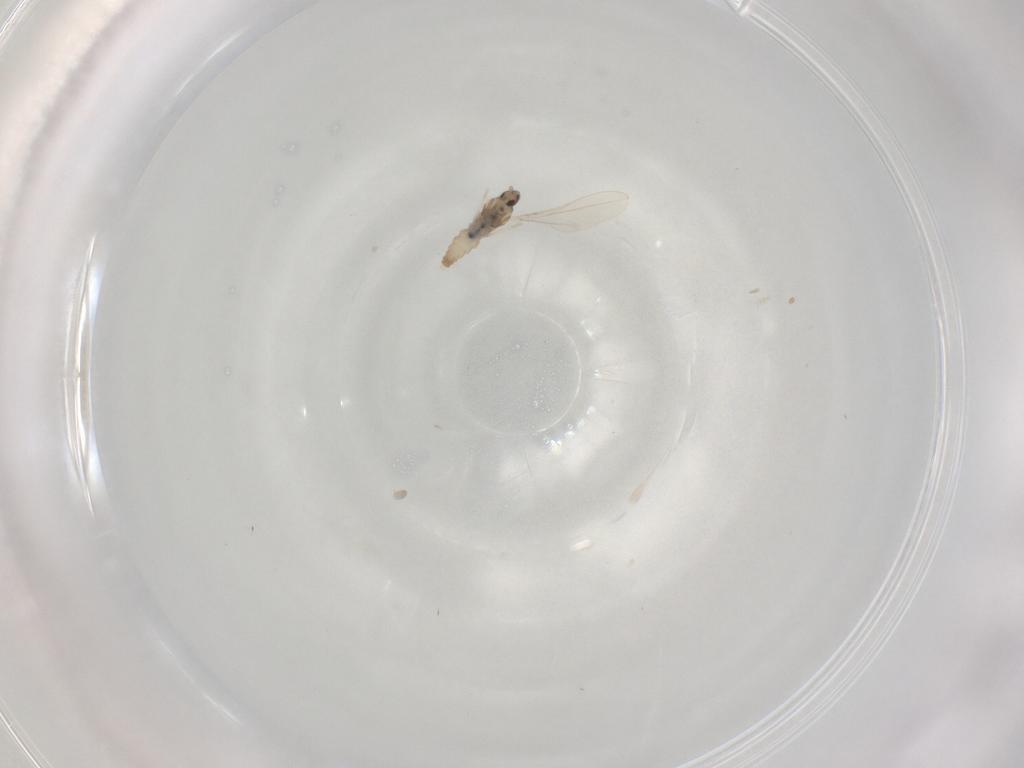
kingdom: Animalia
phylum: Arthropoda
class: Insecta
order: Diptera
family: Cecidomyiidae
